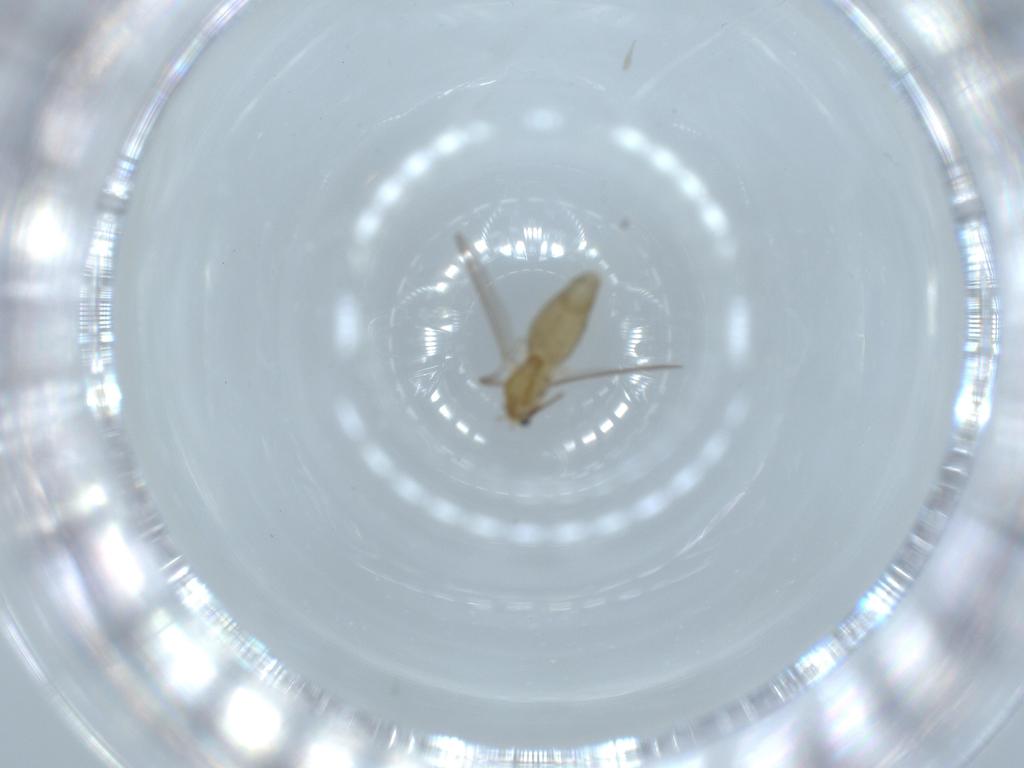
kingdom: Animalia
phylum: Arthropoda
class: Insecta
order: Diptera
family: Chironomidae
